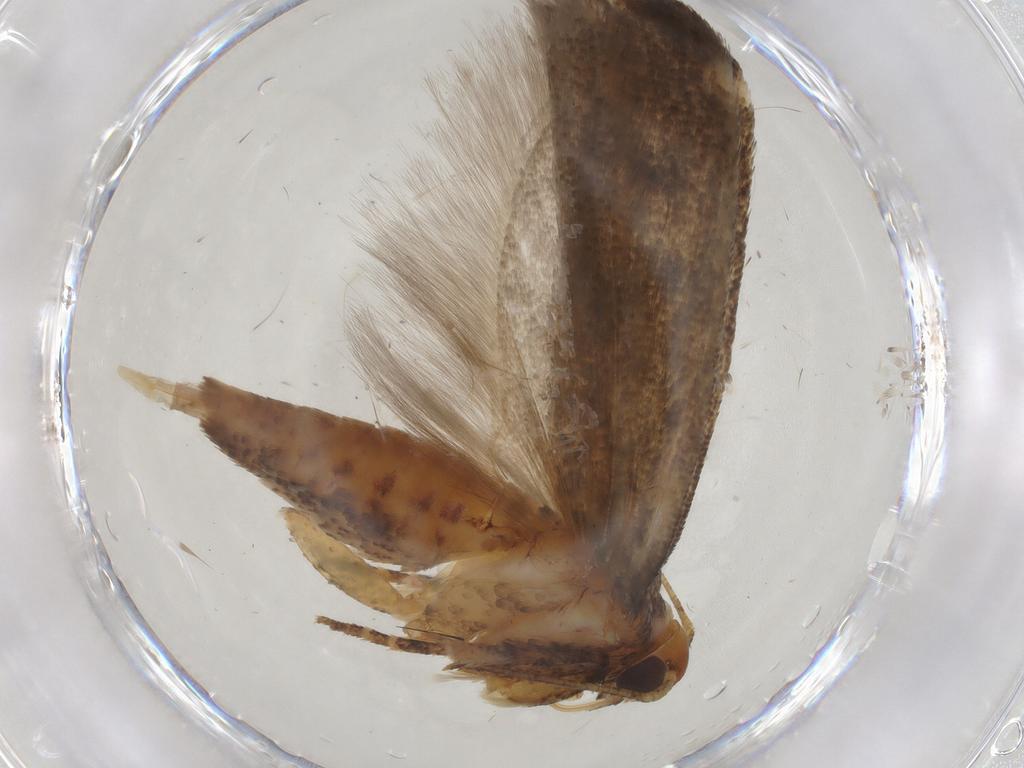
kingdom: Animalia
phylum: Arthropoda
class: Insecta
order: Lepidoptera
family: Gelechiidae
